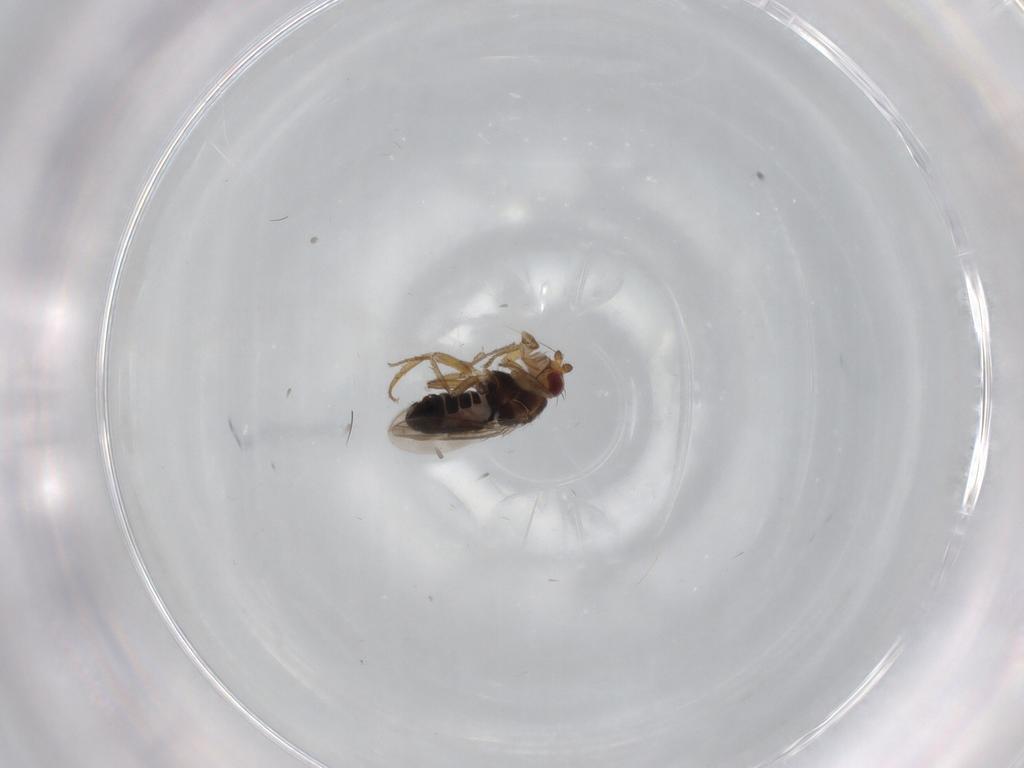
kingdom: Animalia
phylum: Arthropoda
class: Insecta
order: Diptera
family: Sphaeroceridae
